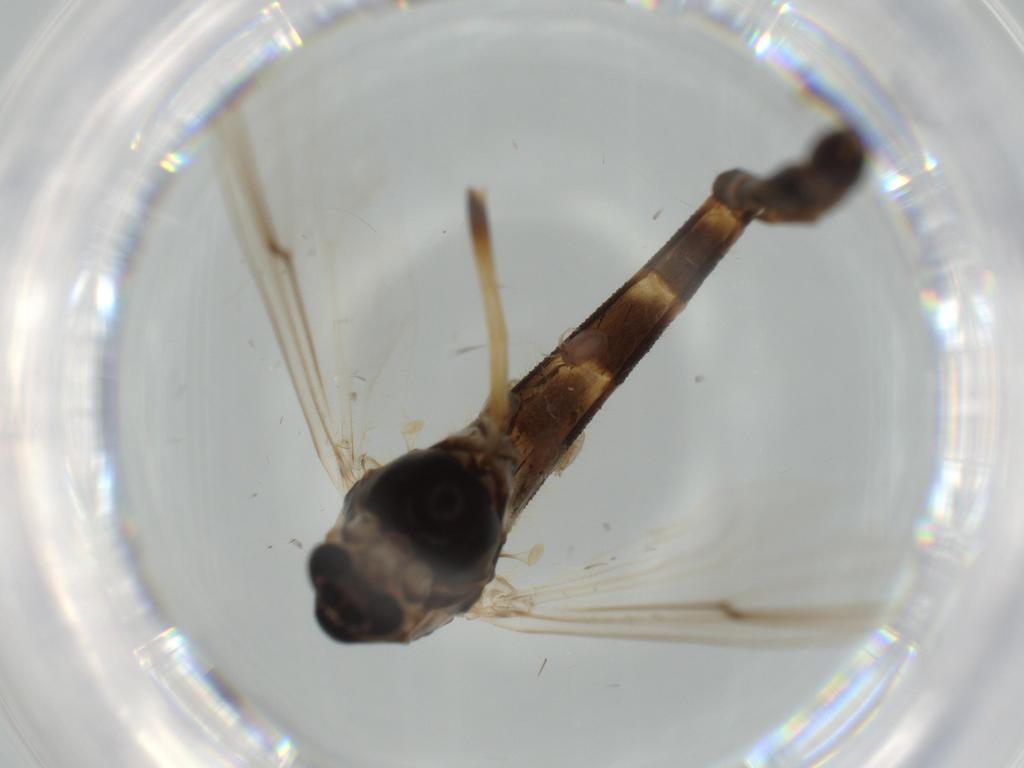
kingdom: Animalia
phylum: Arthropoda
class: Insecta
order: Diptera
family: Chironomidae
